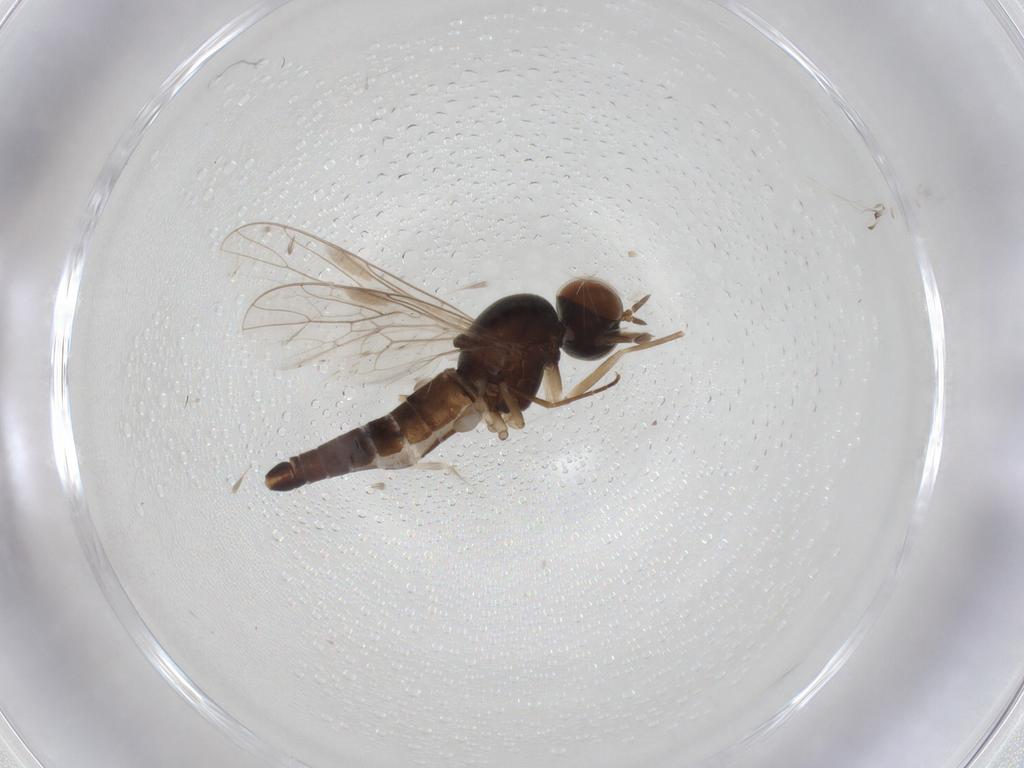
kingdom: Animalia
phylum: Arthropoda
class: Insecta
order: Diptera
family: Scenopinidae
